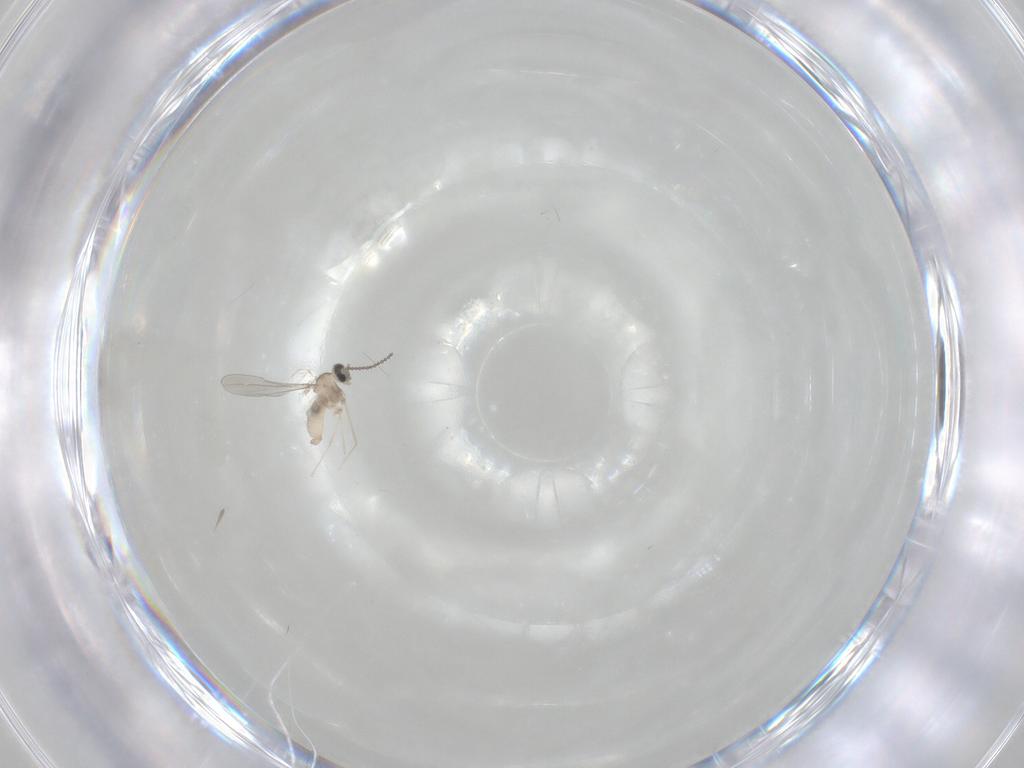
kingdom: Animalia
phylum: Arthropoda
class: Insecta
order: Diptera
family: Cecidomyiidae
